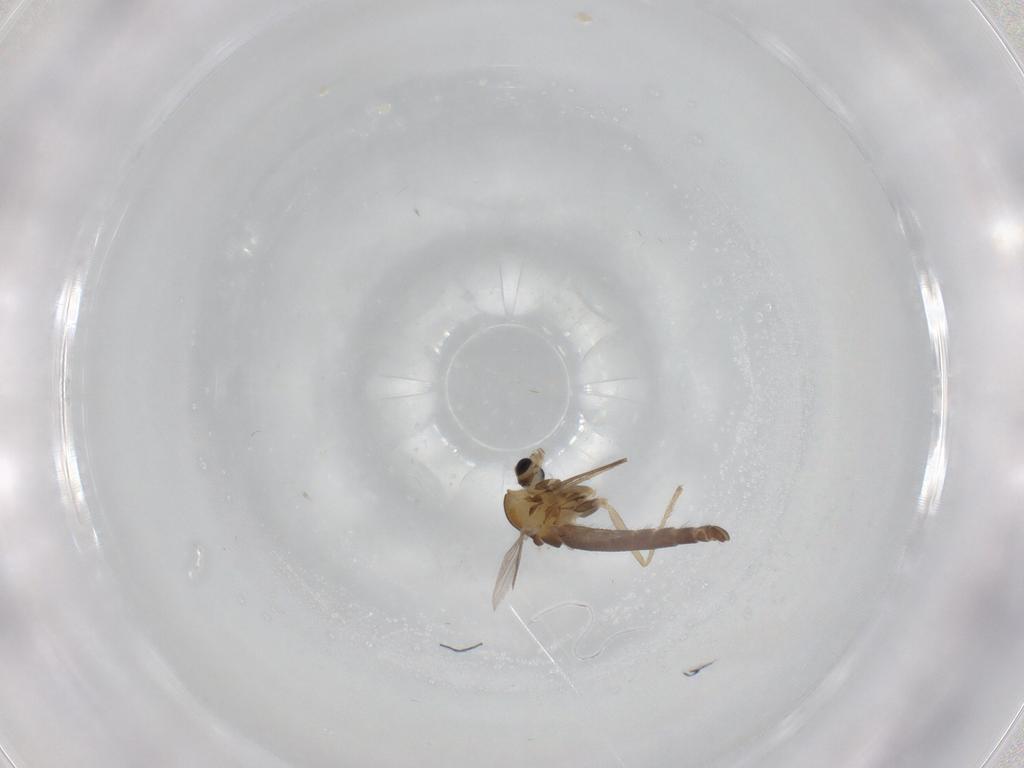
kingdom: Animalia
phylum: Arthropoda
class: Insecta
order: Diptera
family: Chironomidae
